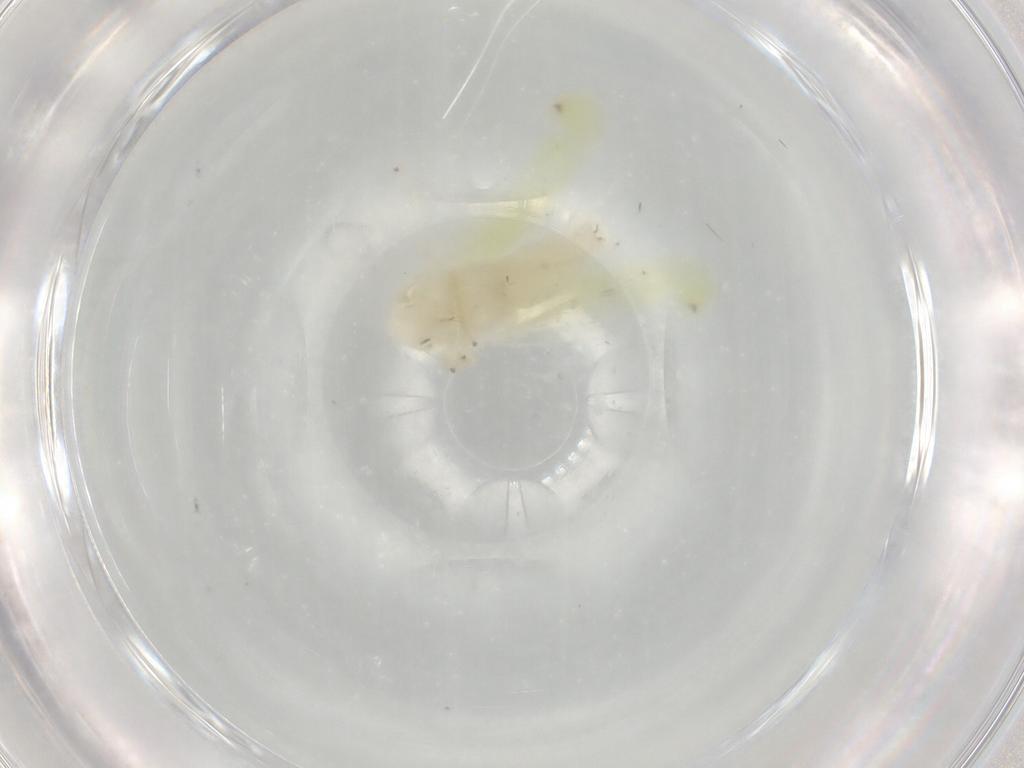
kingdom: Animalia
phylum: Arthropoda
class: Insecta
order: Hemiptera
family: Cicadellidae
